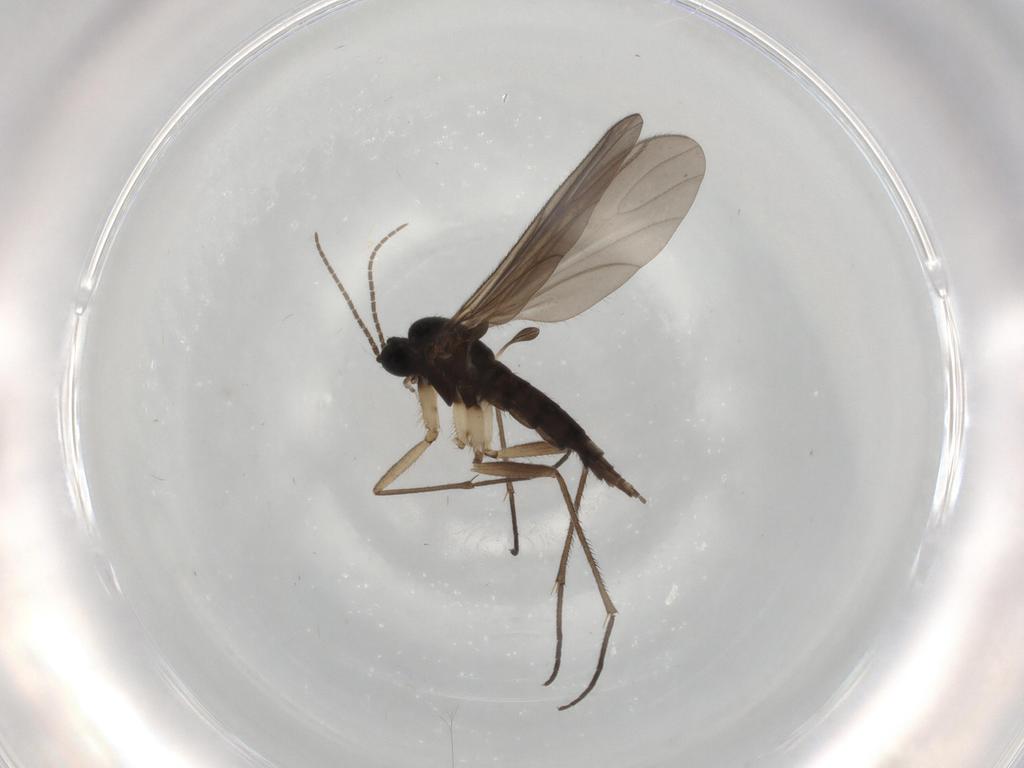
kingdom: Animalia
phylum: Arthropoda
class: Insecta
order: Diptera
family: Sciaridae
